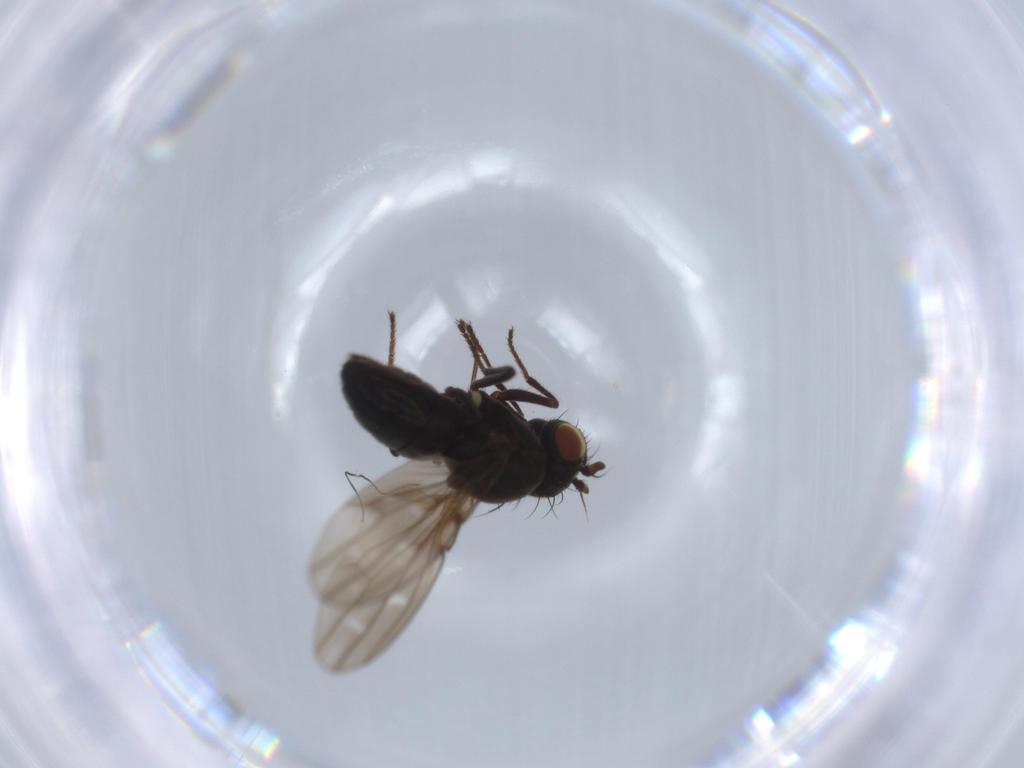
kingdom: Animalia
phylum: Arthropoda
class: Insecta
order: Diptera
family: Ephydridae
